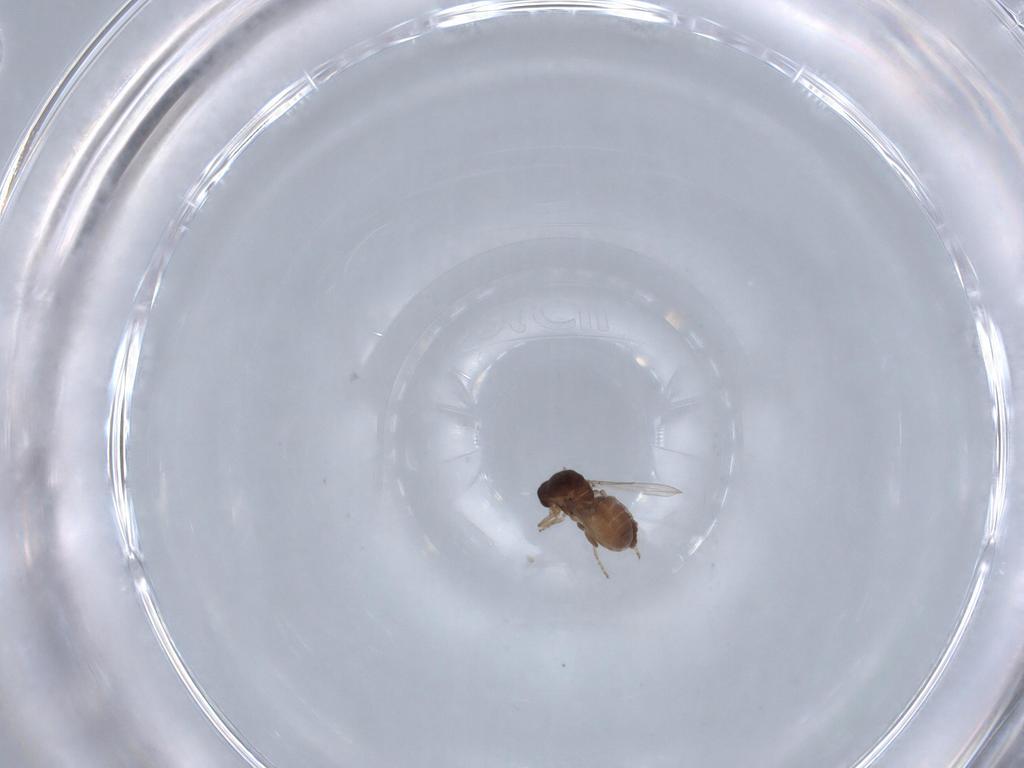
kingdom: Animalia
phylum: Arthropoda
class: Insecta
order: Diptera
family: Ceratopogonidae
